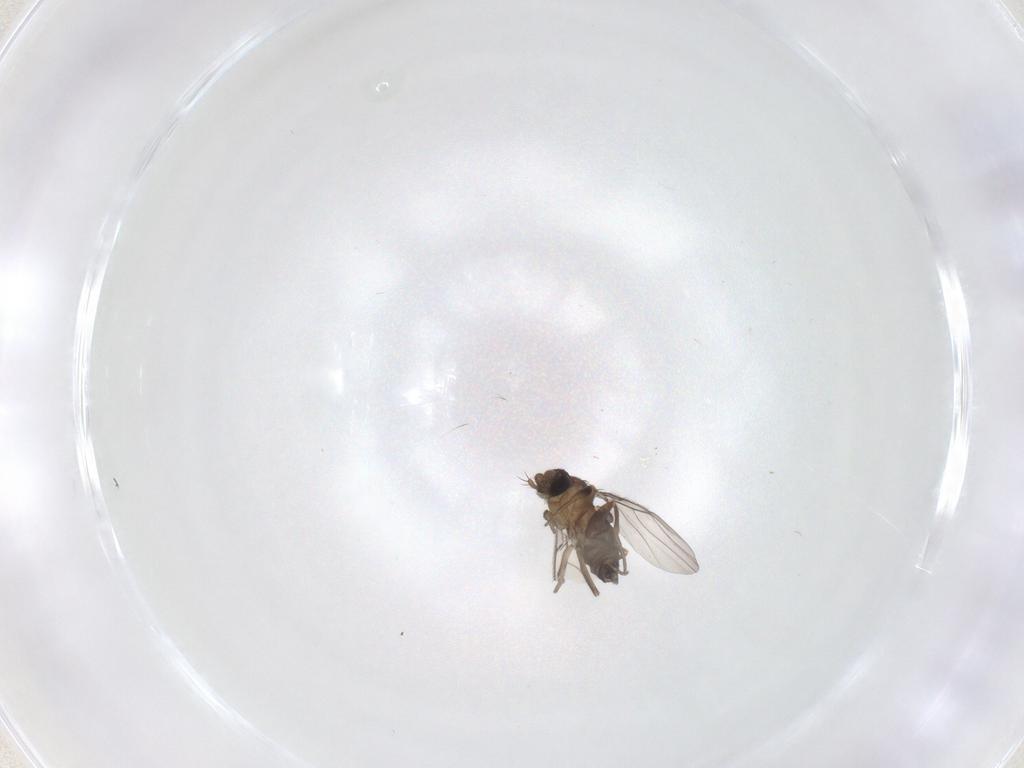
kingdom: Animalia
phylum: Arthropoda
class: Insecta
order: Diptera
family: Phoridae
